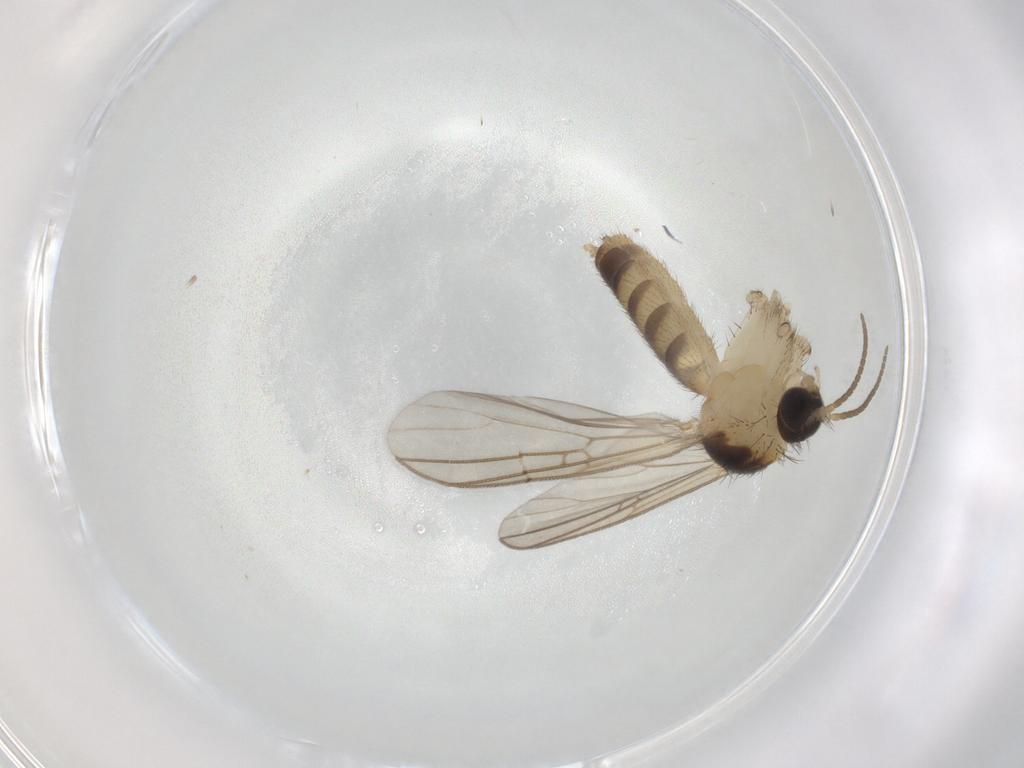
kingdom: Animalia
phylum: Arthropoda
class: Insecta
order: Diptera
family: Mycetophilidae
